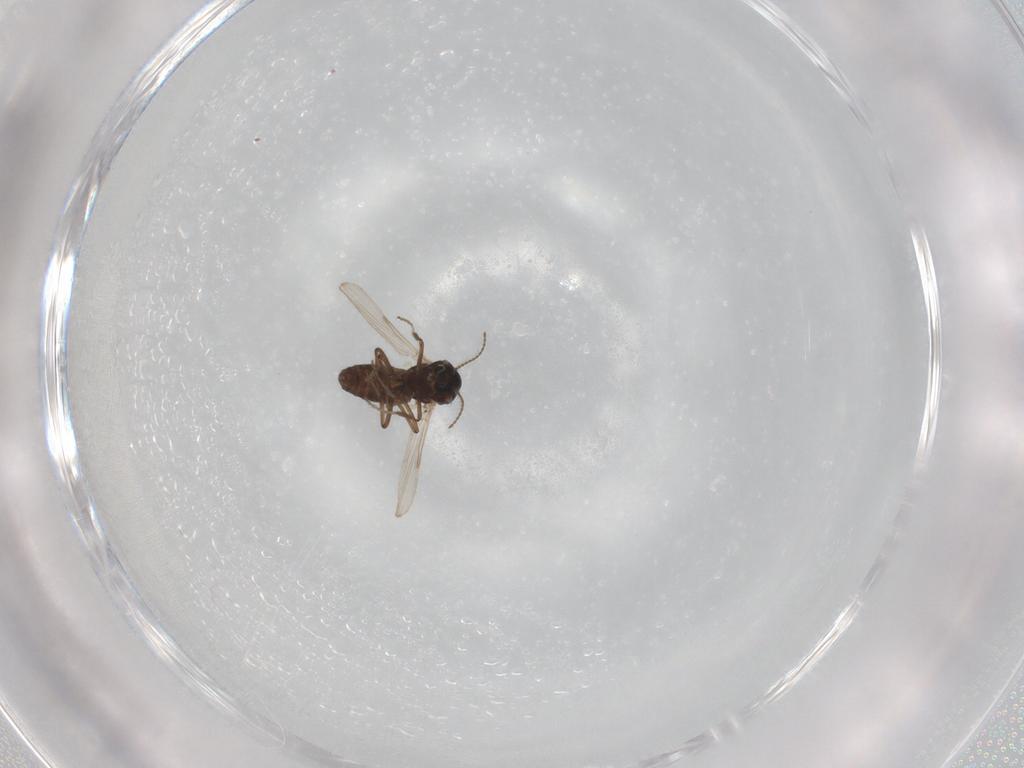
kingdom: Animalia
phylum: Arthropoda
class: Insecta
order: Diptera
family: Ceratopogonidae
